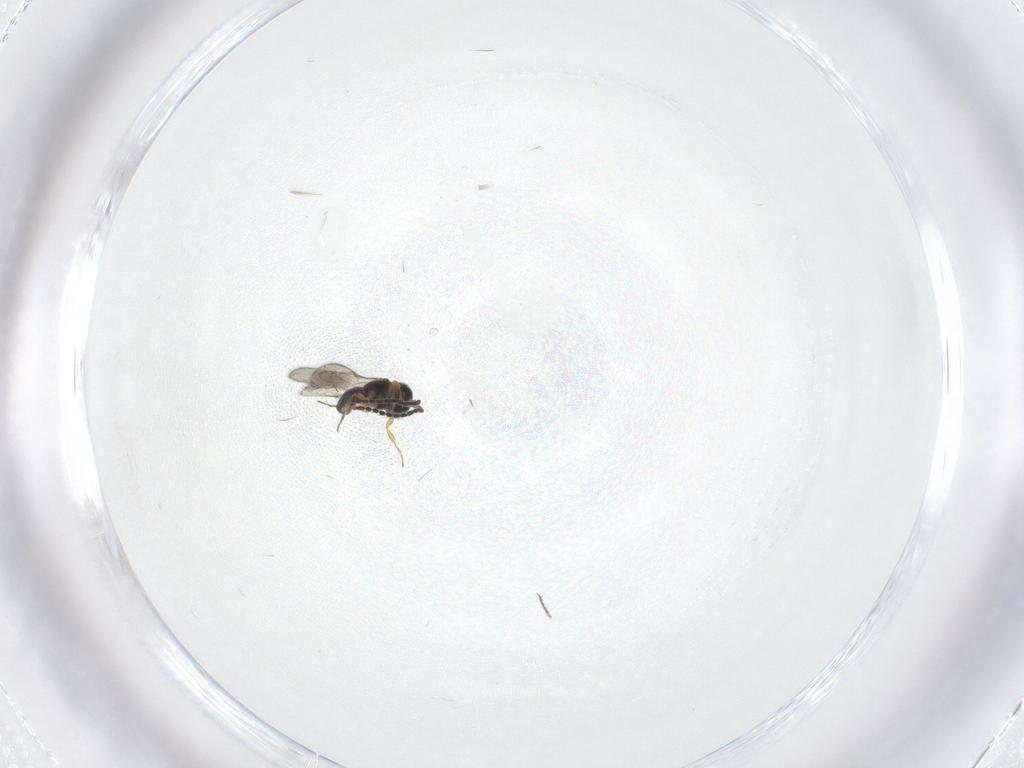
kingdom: Animalia
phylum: Arthropoda
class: Insecta
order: Hymenoptera
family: Scelionidae
